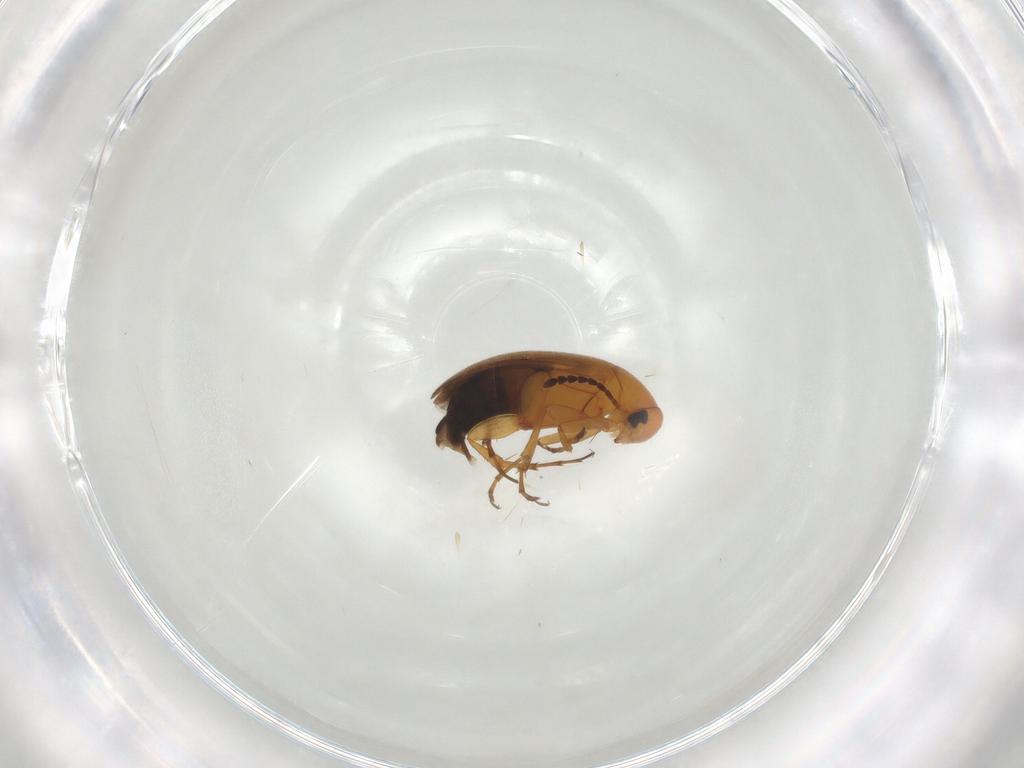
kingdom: Animalia
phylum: Arthropoda
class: Insecta
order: Coleoptera
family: Scraptiidae
